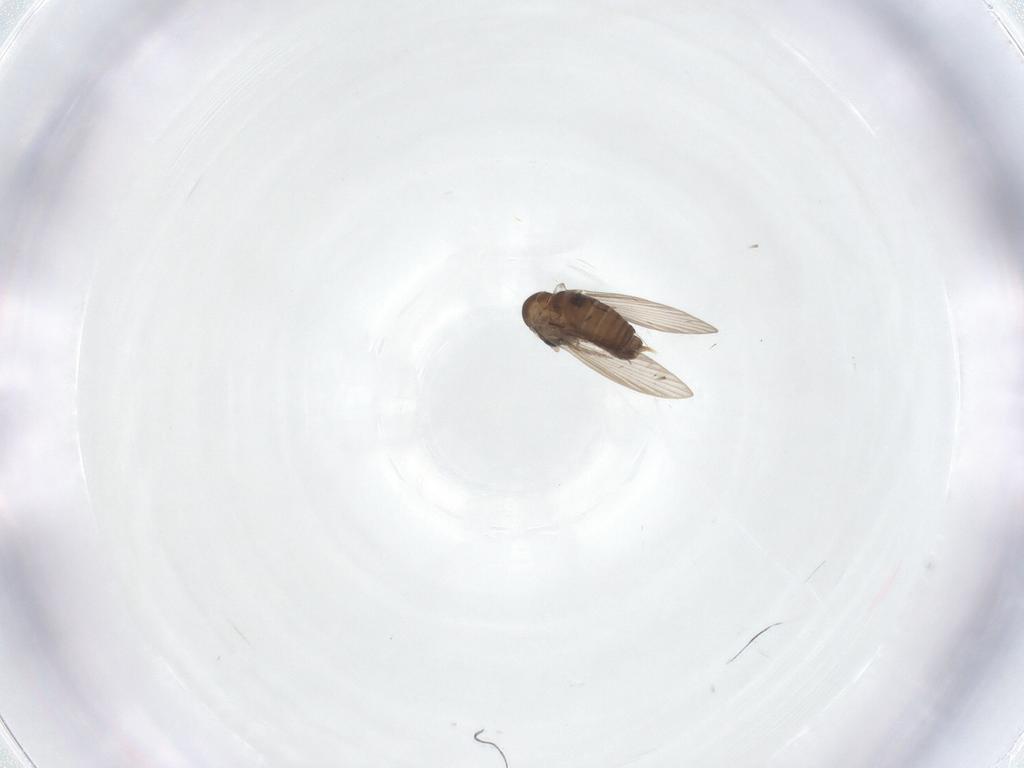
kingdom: Animalia
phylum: Arthropoda
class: Insecta
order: Diptera
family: Psychodidae
